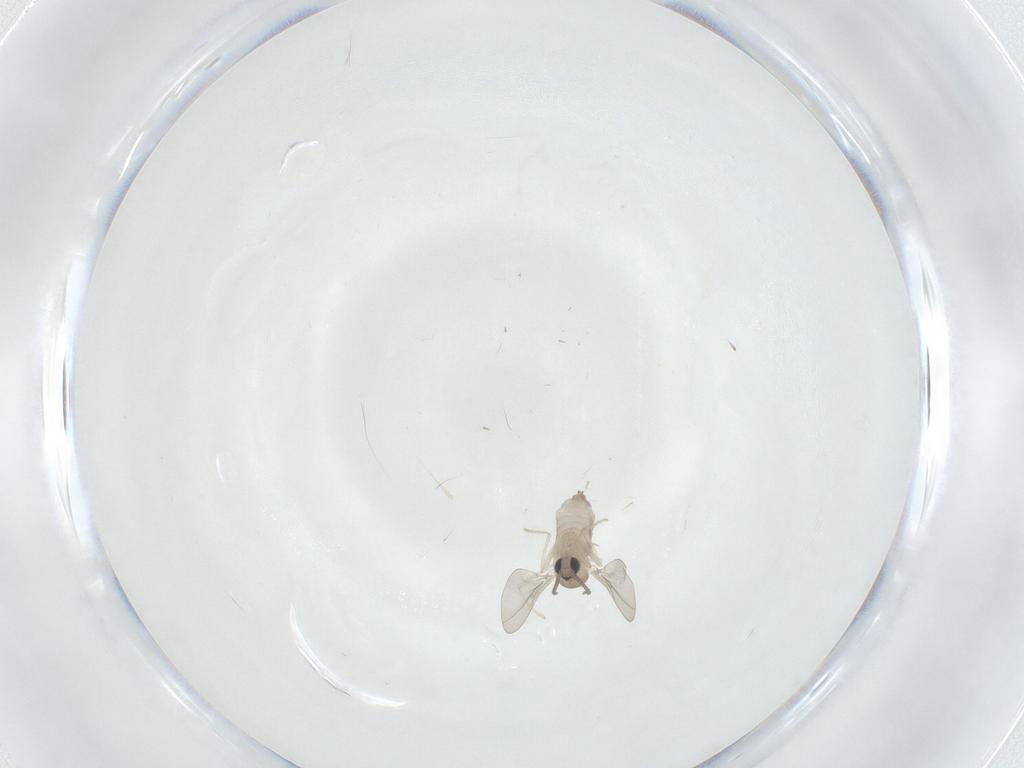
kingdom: Animalia
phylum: Arthropoda
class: Insecta
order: Diptera
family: Cecidomyiidae
